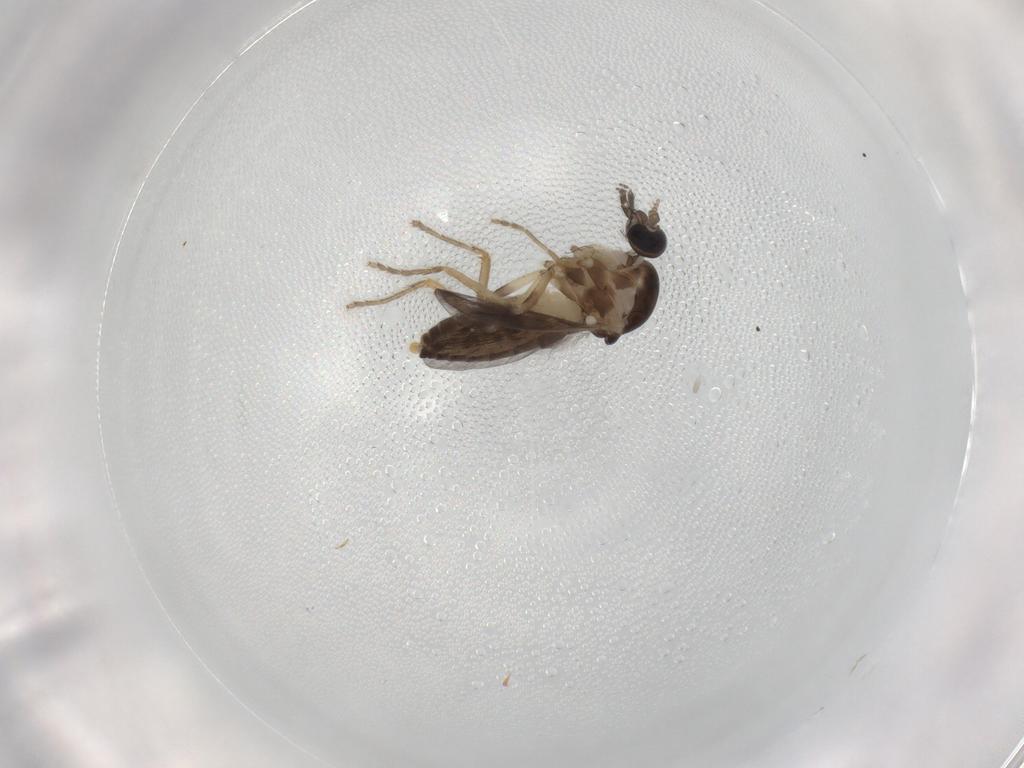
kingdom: Animalia
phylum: Arthropoda
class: Insecta
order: Diptera
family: Ceratopogonidae
